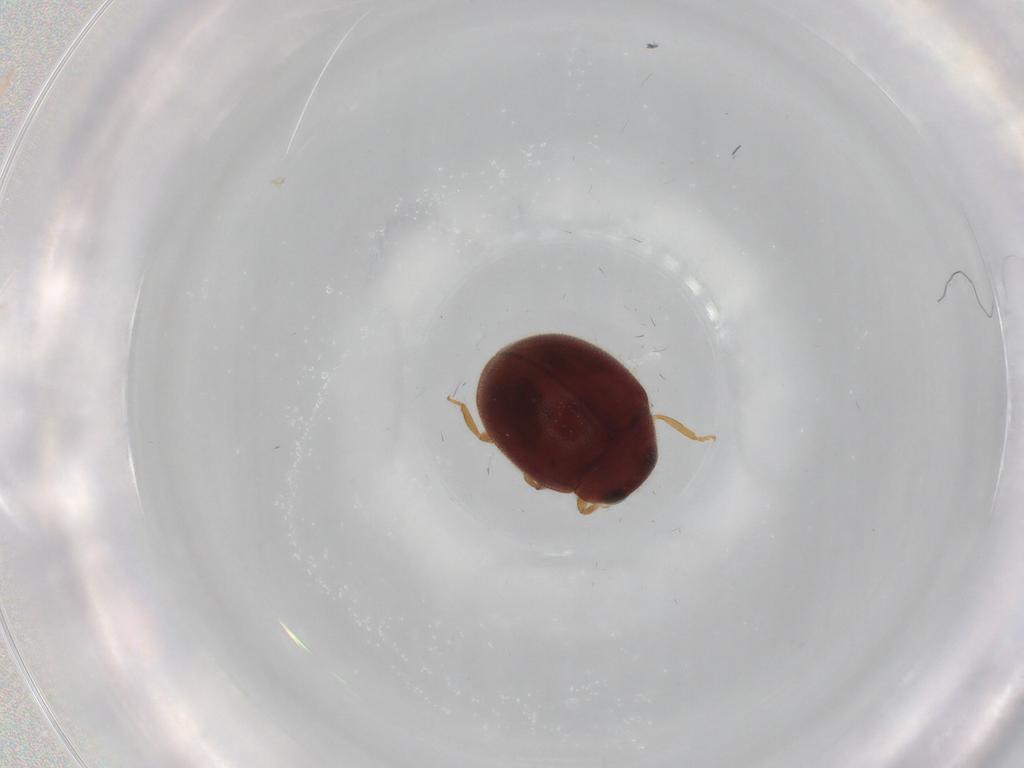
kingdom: Animalia
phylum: Arthropoda
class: Insecta
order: Coleoptera
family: Coccinellidae
